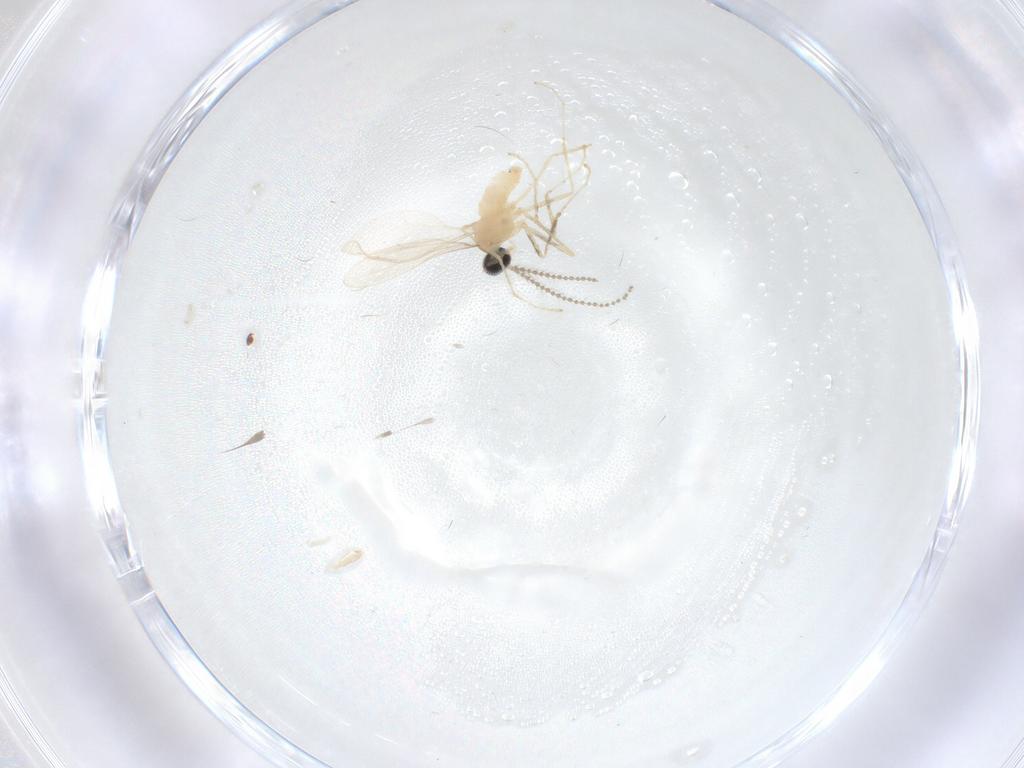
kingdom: Animalia
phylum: Arthropoda
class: Insecta
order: Diptera
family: Cecidomyiidae
